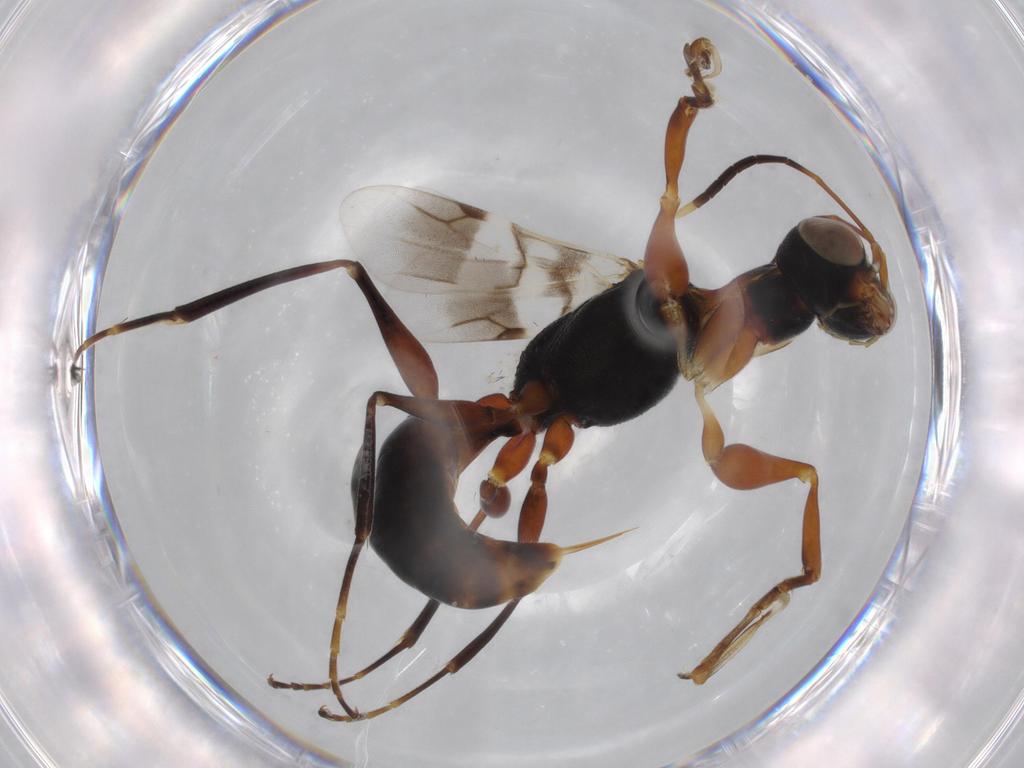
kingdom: Animalia
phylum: Arthropoda
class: Insecta
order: Hymenoptera
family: Dryinidae
